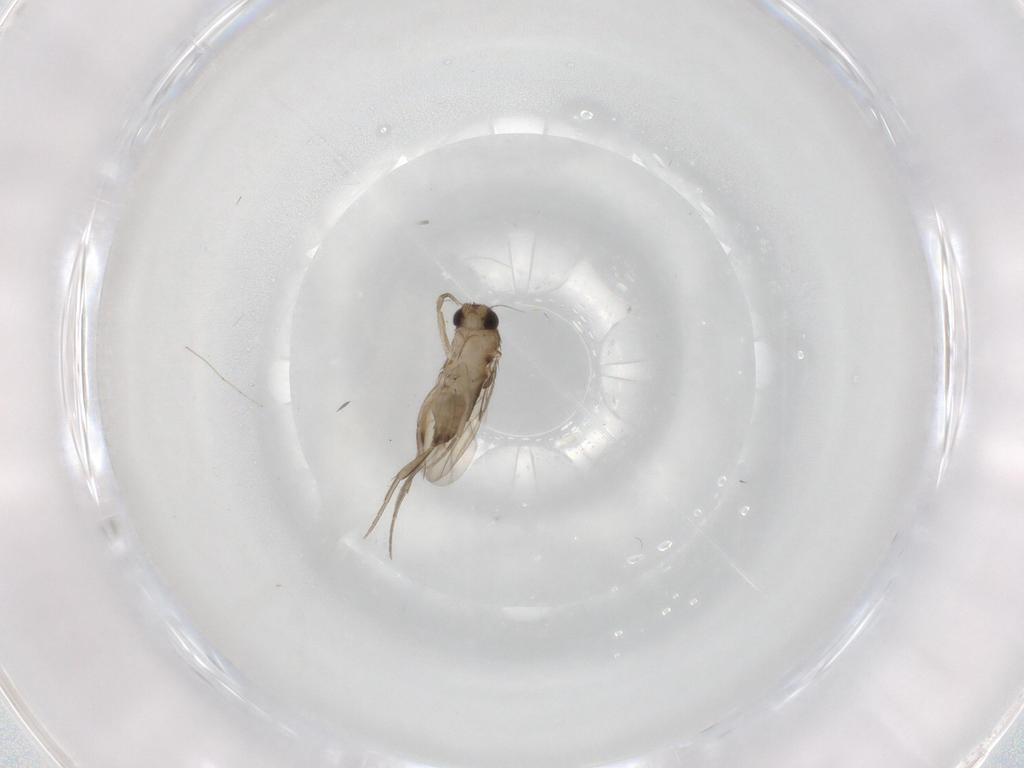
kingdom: Animalia
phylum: Arthropoda
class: Insecta
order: Diptera
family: Phoridae
